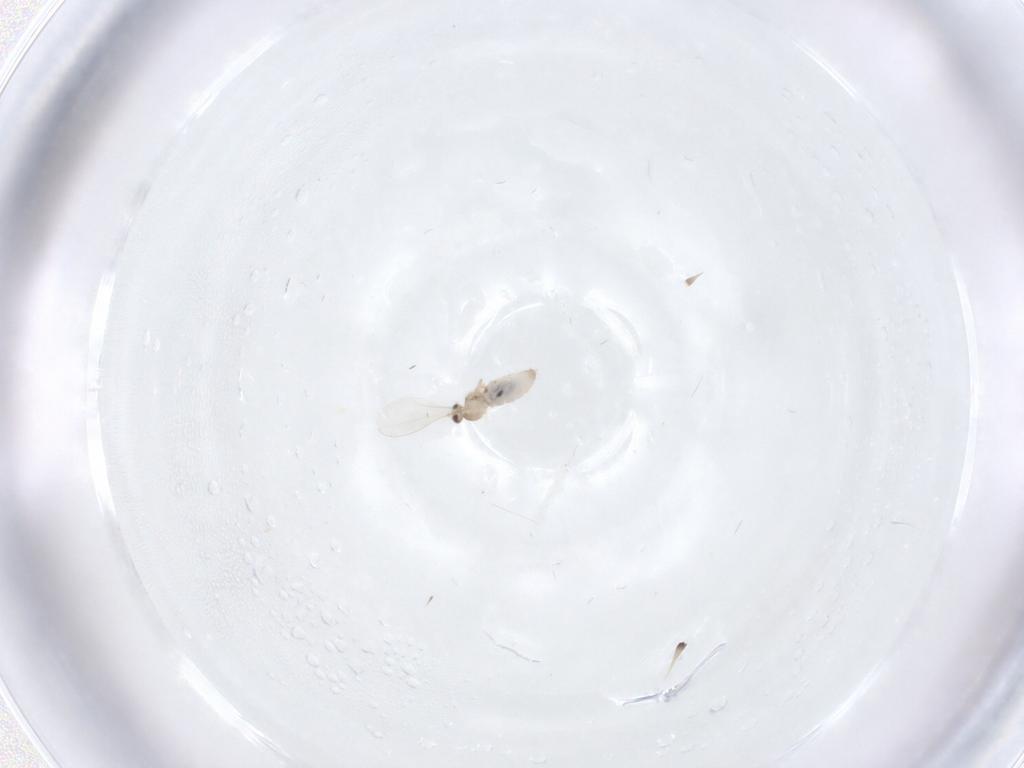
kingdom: Animalia
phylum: Arthropoda
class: Insecta
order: Diptera
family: Cecidomyiidae
